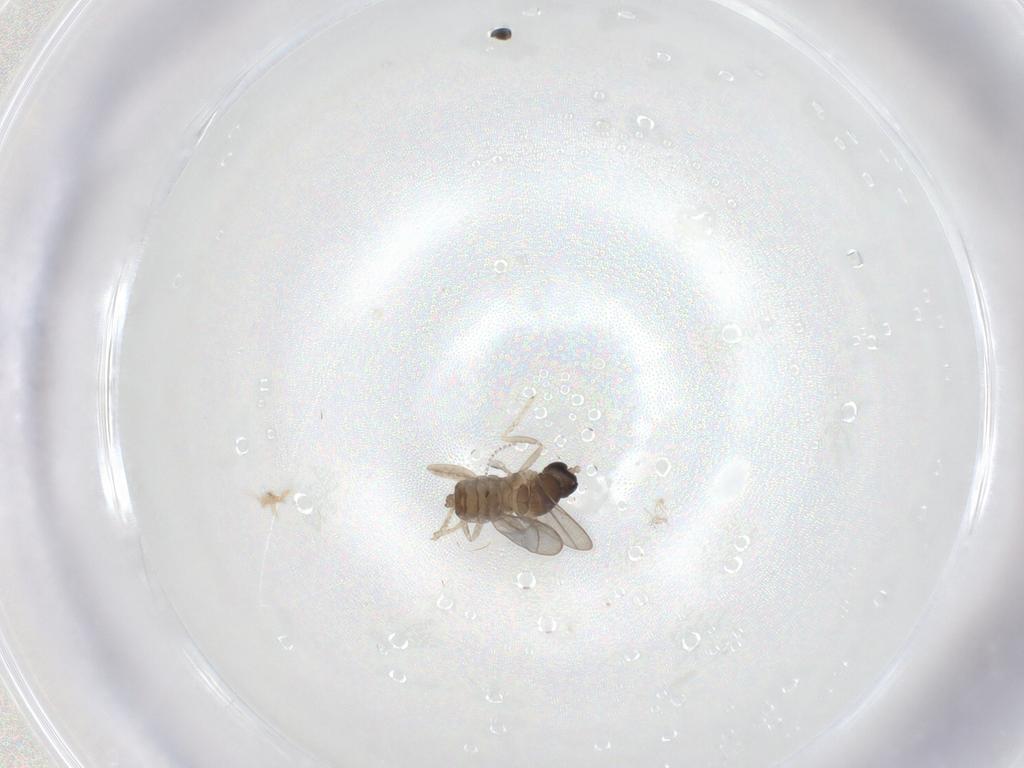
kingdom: Animalia
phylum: Arthropoda
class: Insecta
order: Diptera
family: Cecidomyiidae
